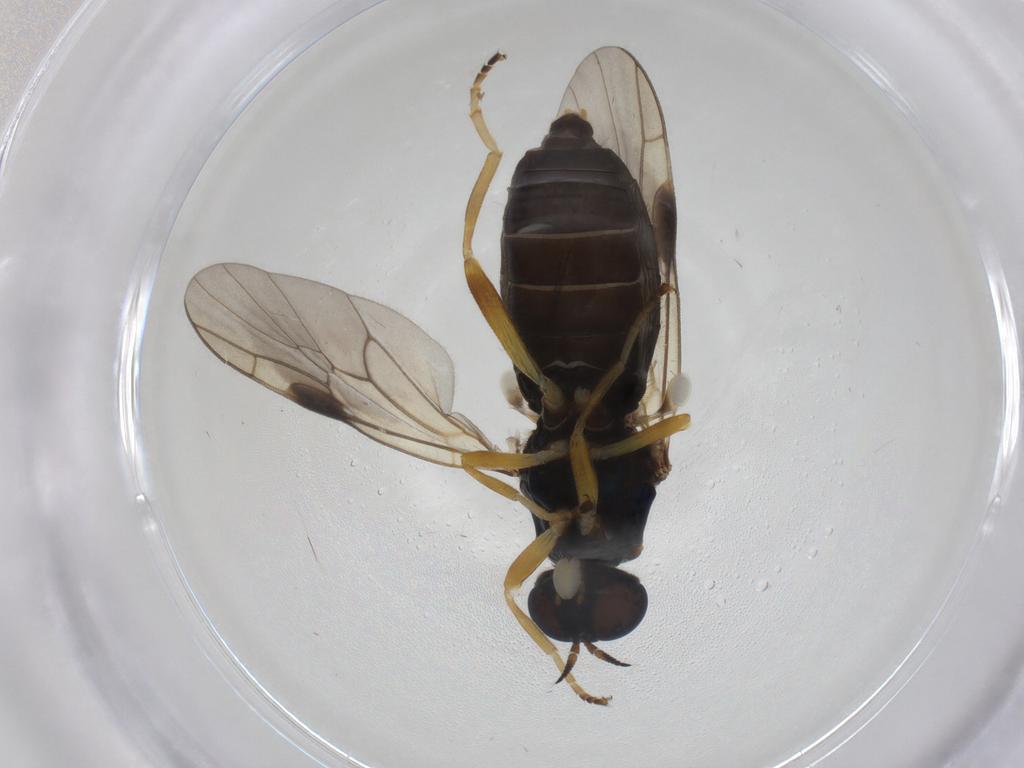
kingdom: Animalia
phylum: Arthropoda
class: Insecta
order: Diptera
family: Stratiomyidae
